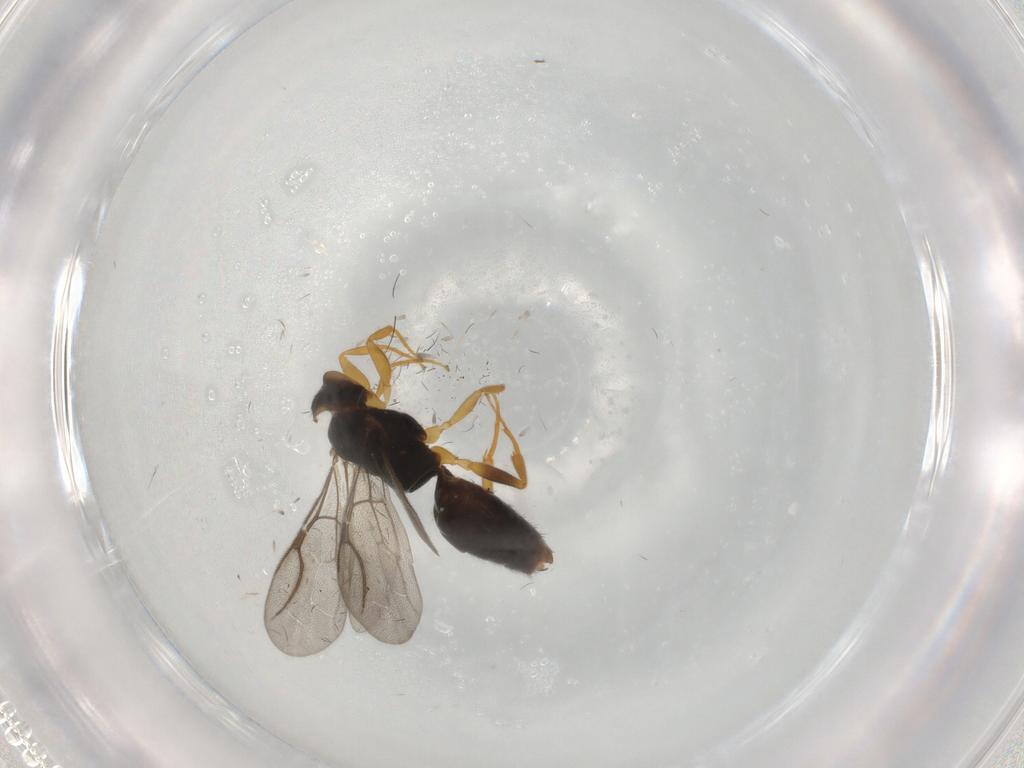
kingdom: Animalia
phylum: Arthropoda
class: Insecta
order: Hymenoptera
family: Bethylidae
